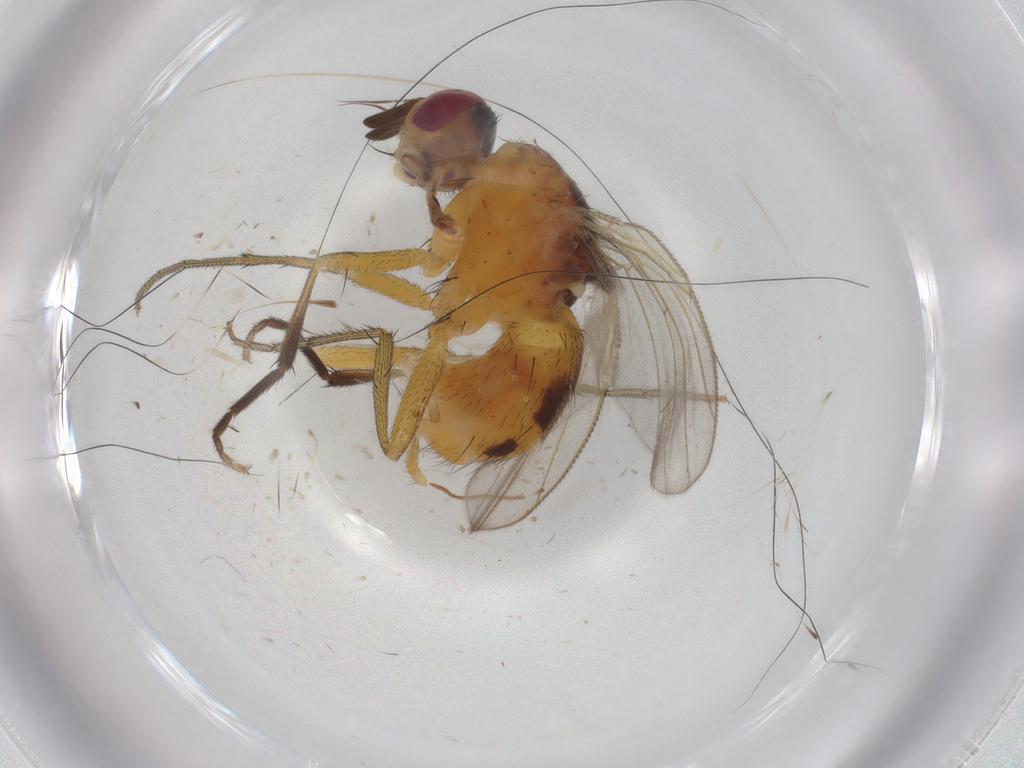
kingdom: Animalia
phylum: Arthropoda
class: Insecta
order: Diptera
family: Muscidae
